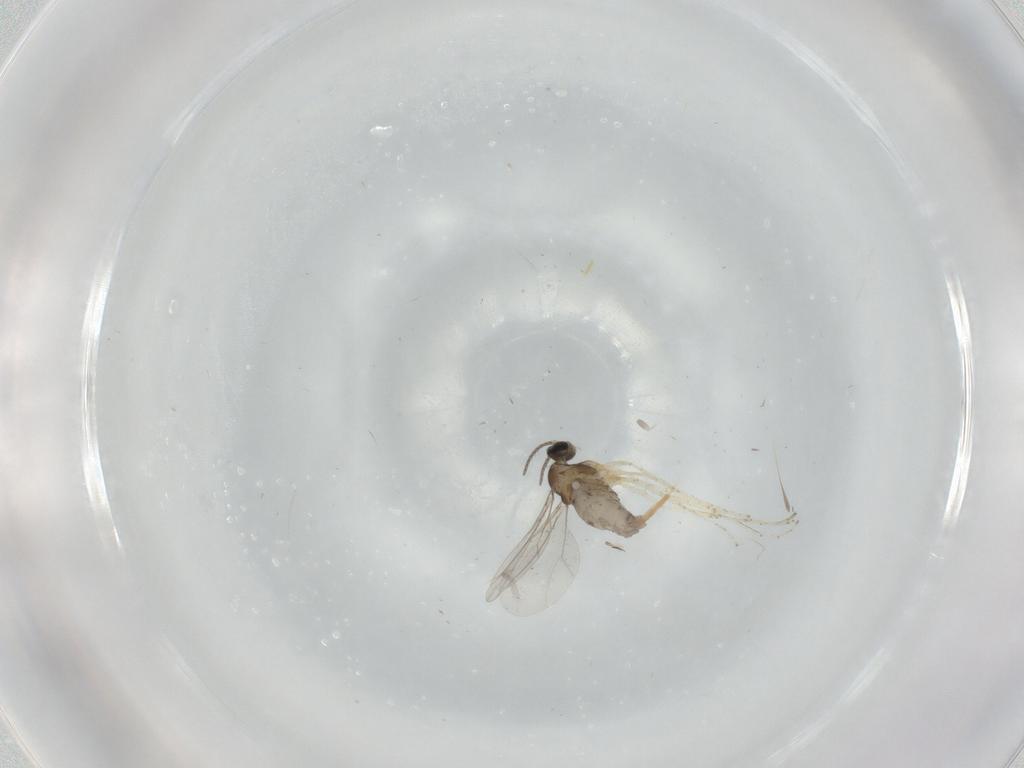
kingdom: Animalia
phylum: Arthropoda
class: Insecta
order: Diptera
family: Cecidomyiidae
